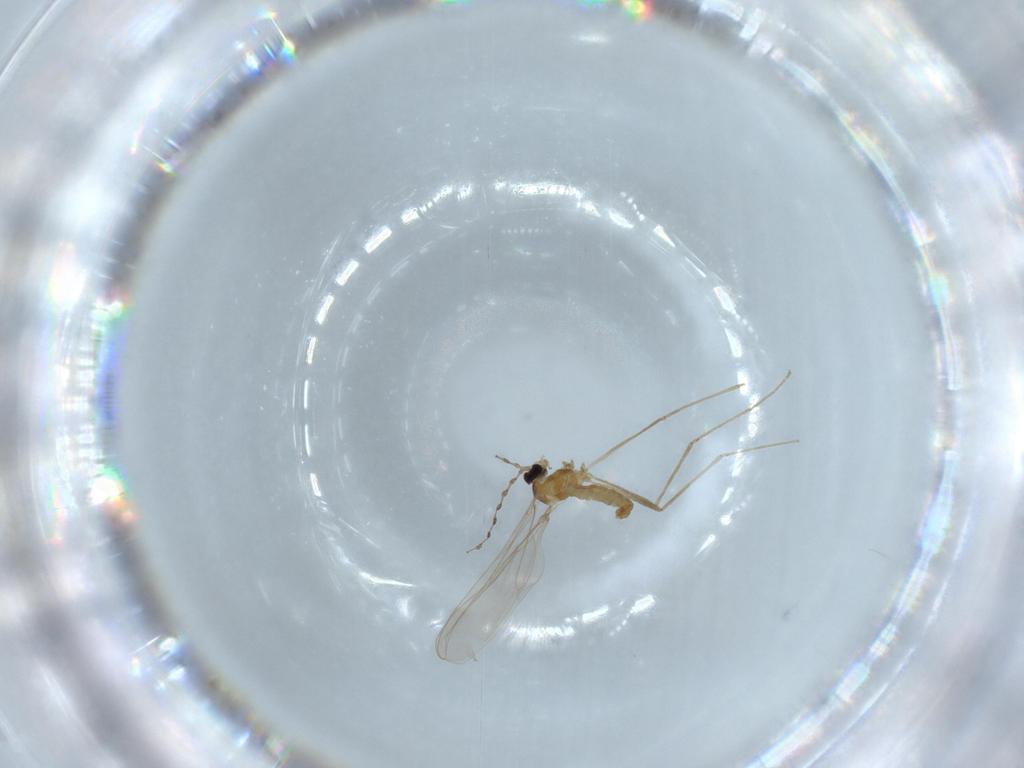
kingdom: Animalia
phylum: Arthropoda
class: Insecta
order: Diptera
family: Cecidomyiidae
